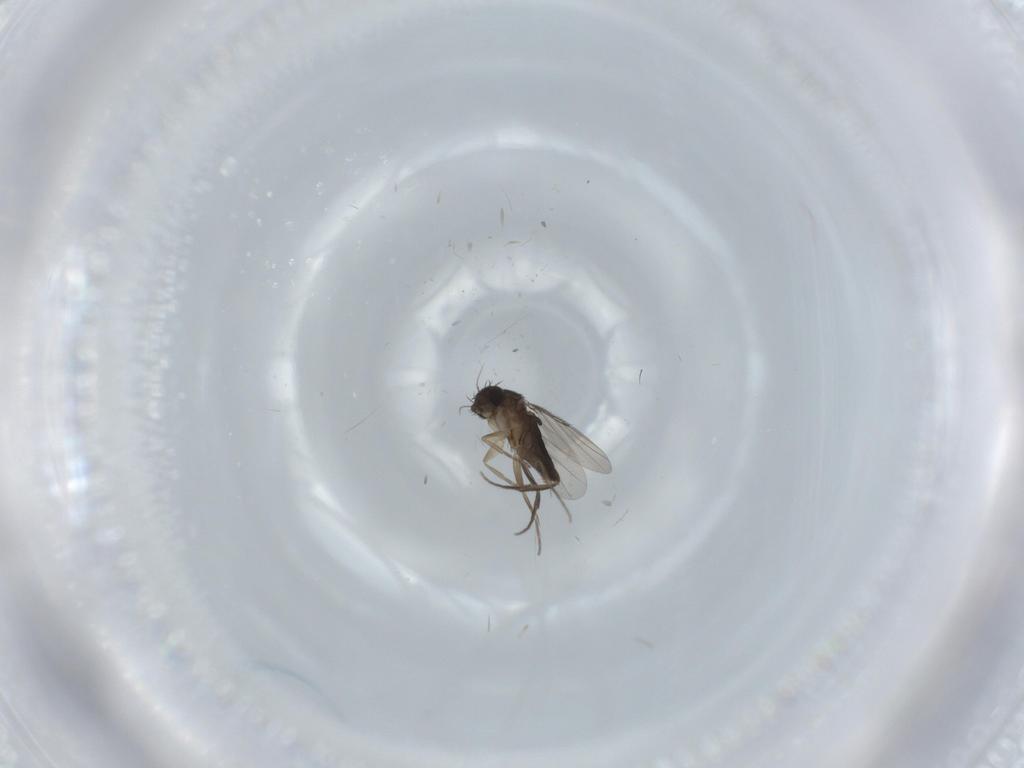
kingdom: Animalia
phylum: Arthropoda
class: Insecta
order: Diptera
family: Phoridae
